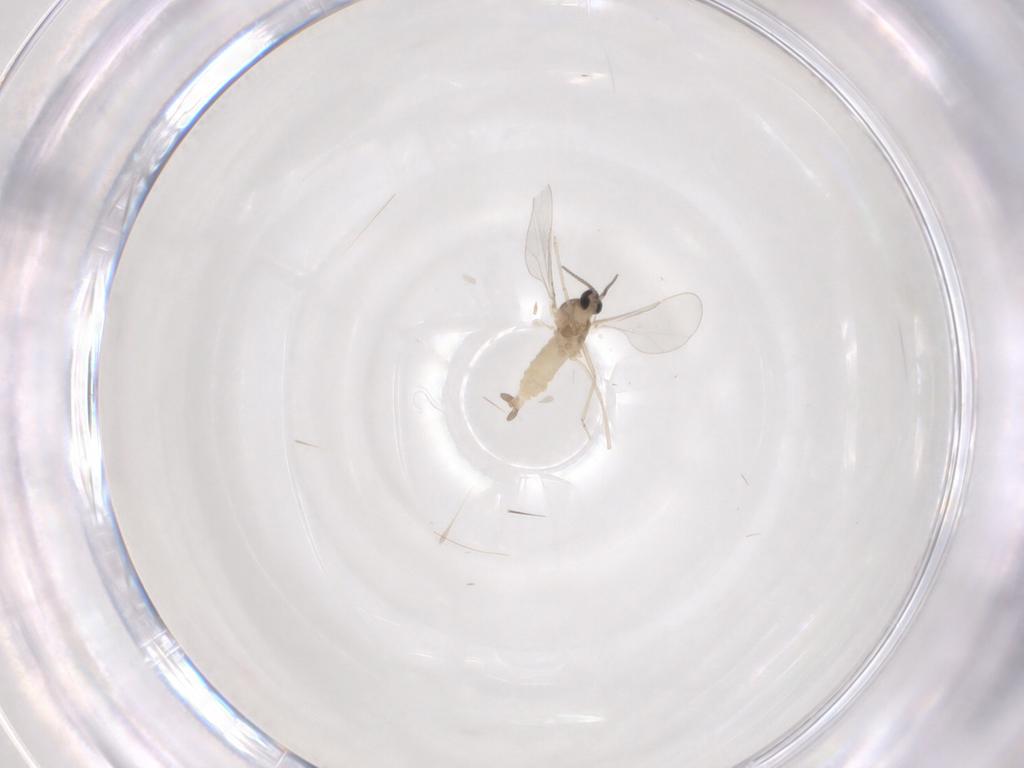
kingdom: Animalia
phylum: Arthropoda
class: Insecta
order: Diptera
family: Cecidomyiidae
